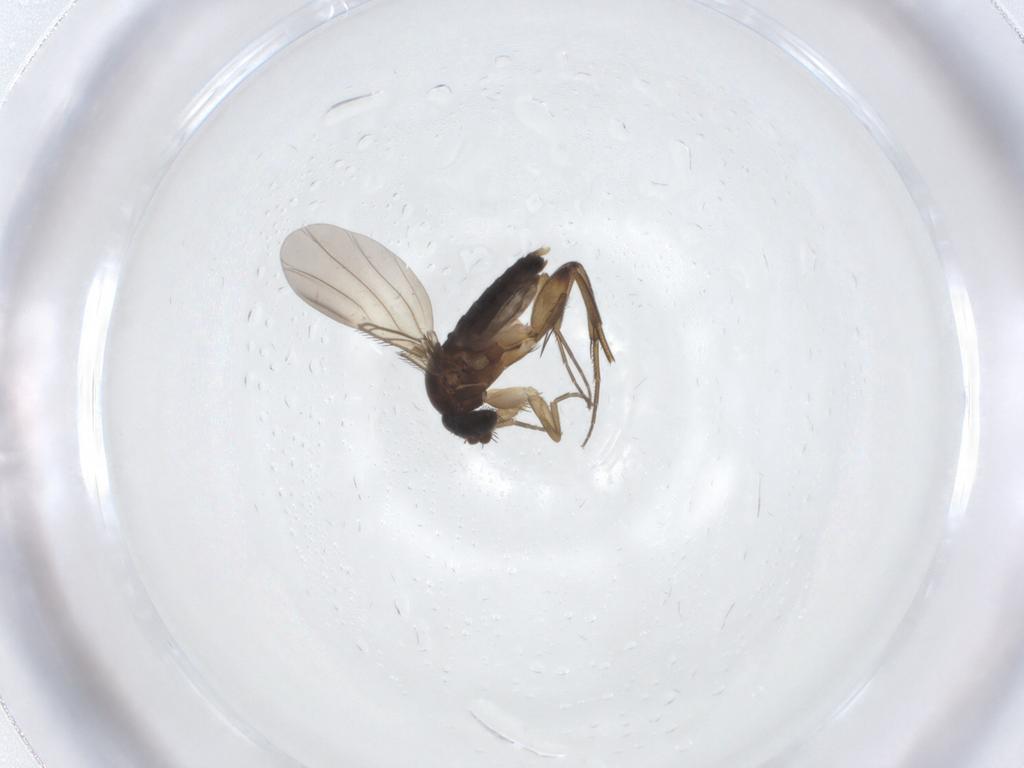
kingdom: Animalia
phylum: Arthropoda
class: Insecta
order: Diptera
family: Phoridae
